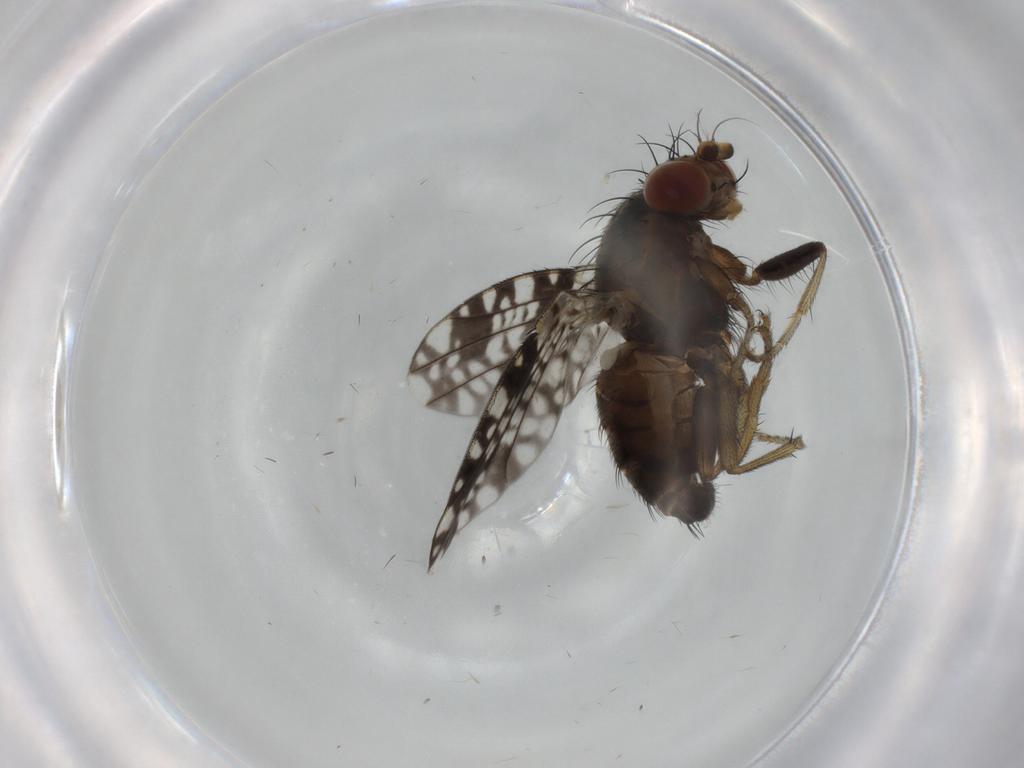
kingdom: Animalia
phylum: Arthropoda
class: Insecta
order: Diptera
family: Tephritidae
